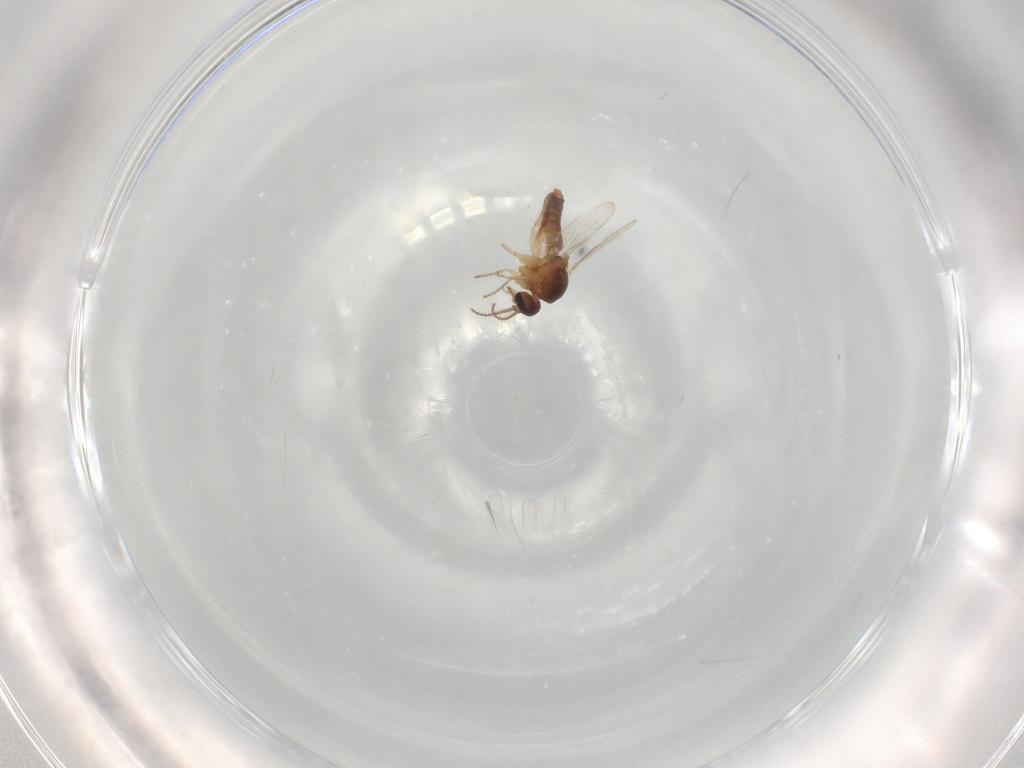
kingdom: Animalia
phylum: Arthropoda
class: Insecta
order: Diptera
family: Ceratopogonidae
